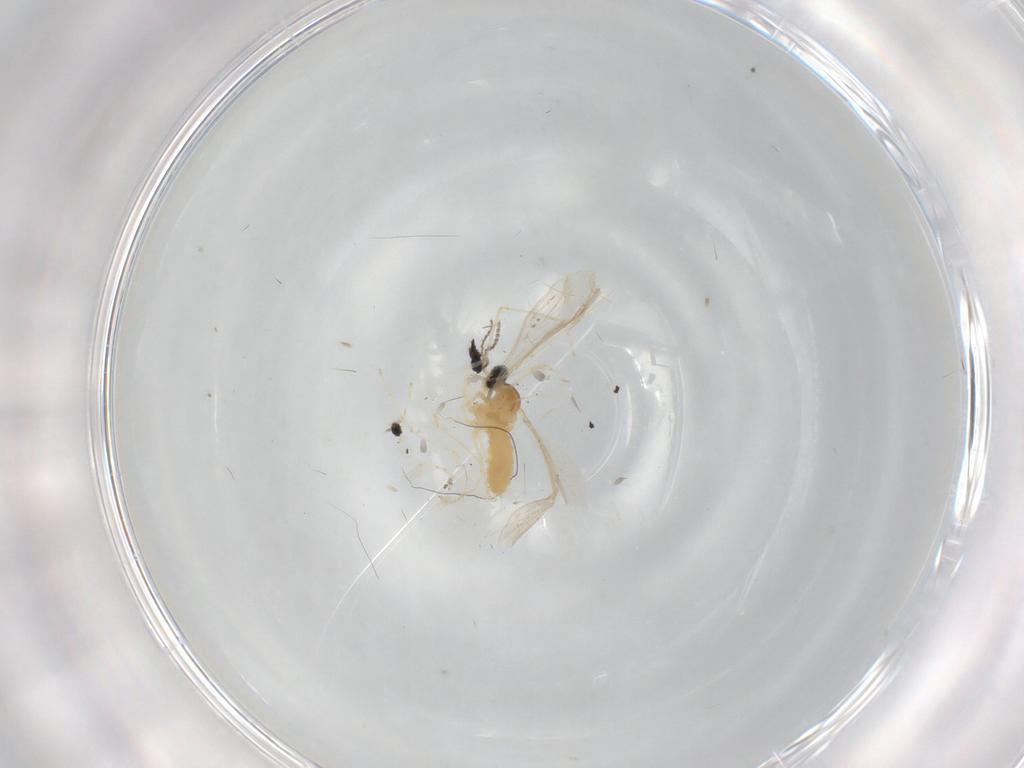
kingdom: Animalia
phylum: Arthropoda
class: Insecta
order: Diptera
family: Cecidomyiidae
